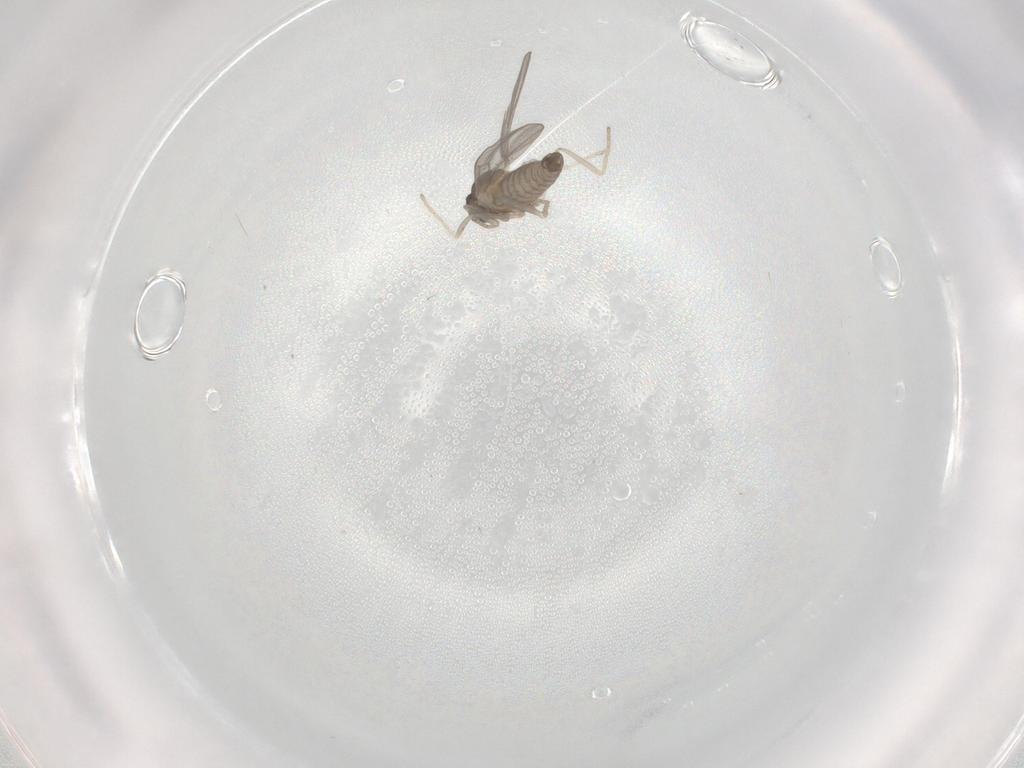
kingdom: Animalia
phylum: Arthropoda
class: Insecta
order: Diptera
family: Cecidomyiidae
